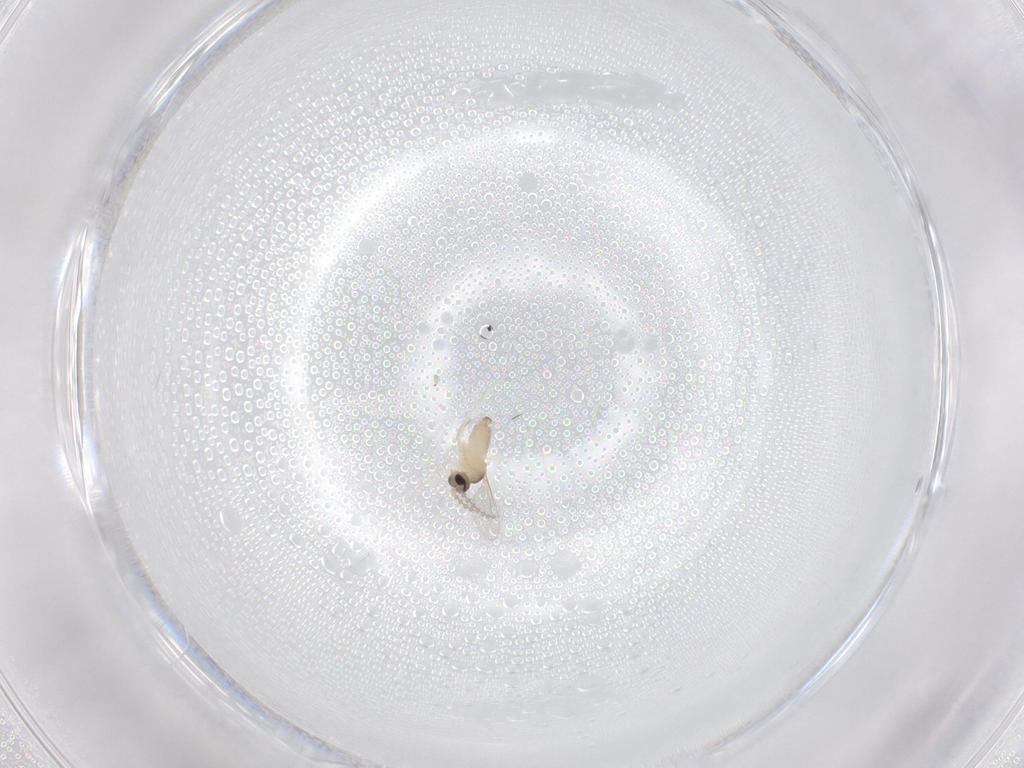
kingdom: Animalia
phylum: Arthropoda
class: Insecta
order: Diptera
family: Cecidomyiidae
